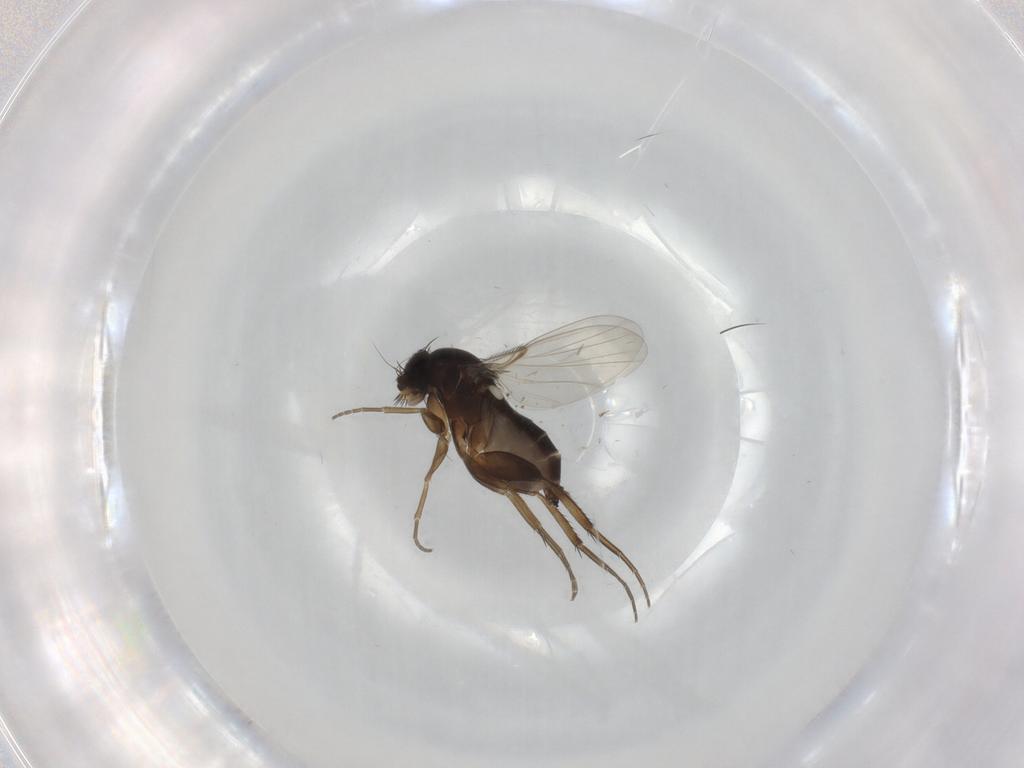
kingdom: Animalia
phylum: Arthropoda
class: Insecta
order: Diptera
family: Phoridae
